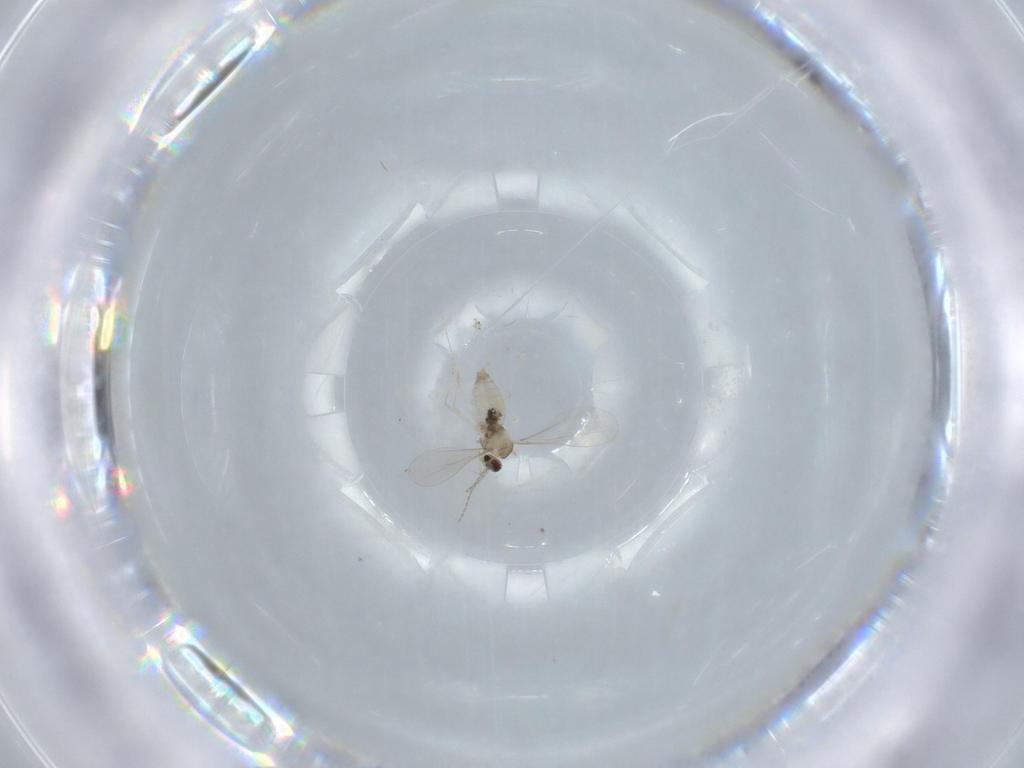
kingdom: Animalia
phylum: Arthropoda
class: Insecta
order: Diptera
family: Cecidomyiidae
